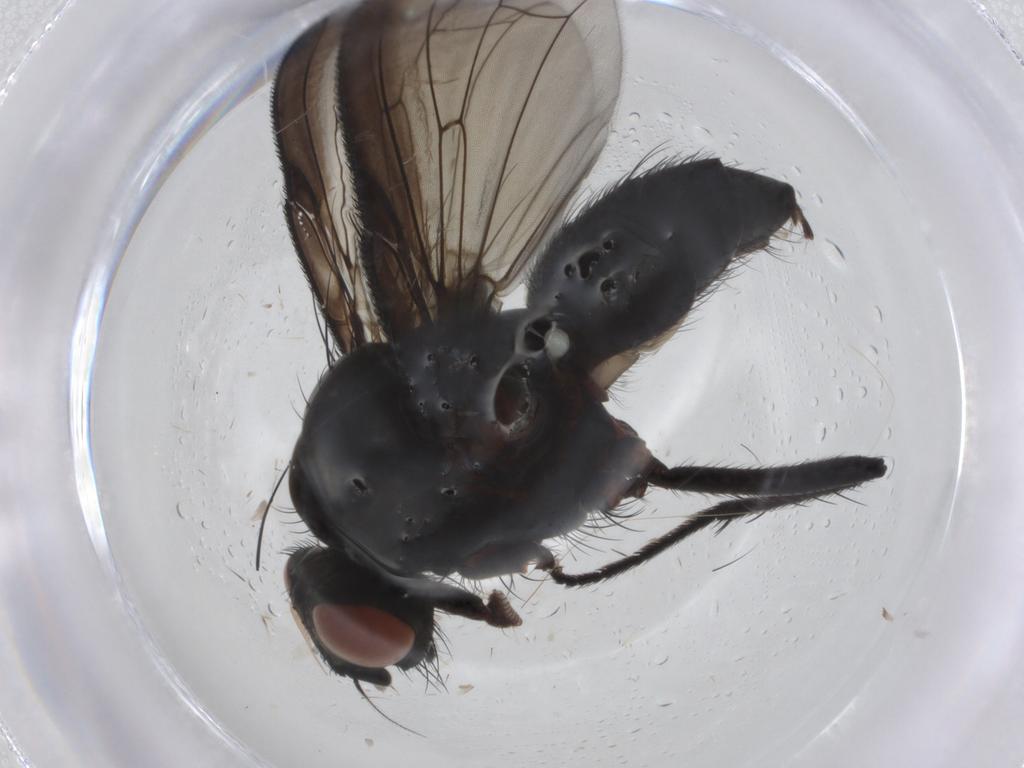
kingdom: Animalia
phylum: Arthropoda
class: Insecta
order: Diptera
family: Anthomyiidae
